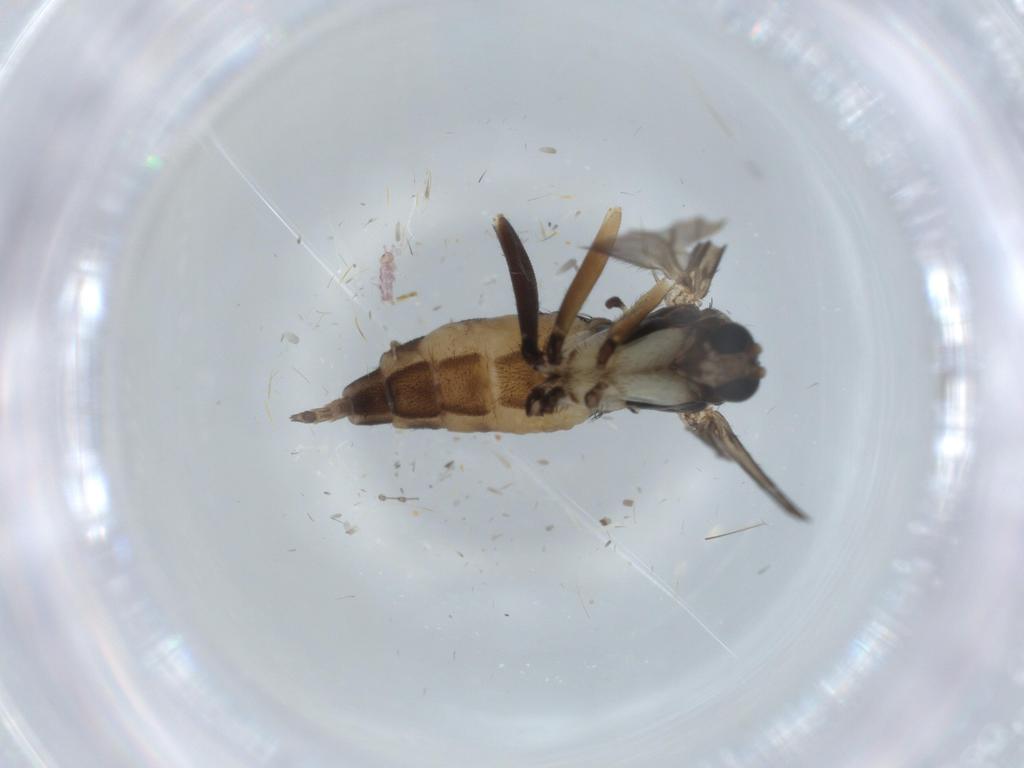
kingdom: Animalia
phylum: Arthropoda
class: Insecta
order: Diptera
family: Sciaridae
